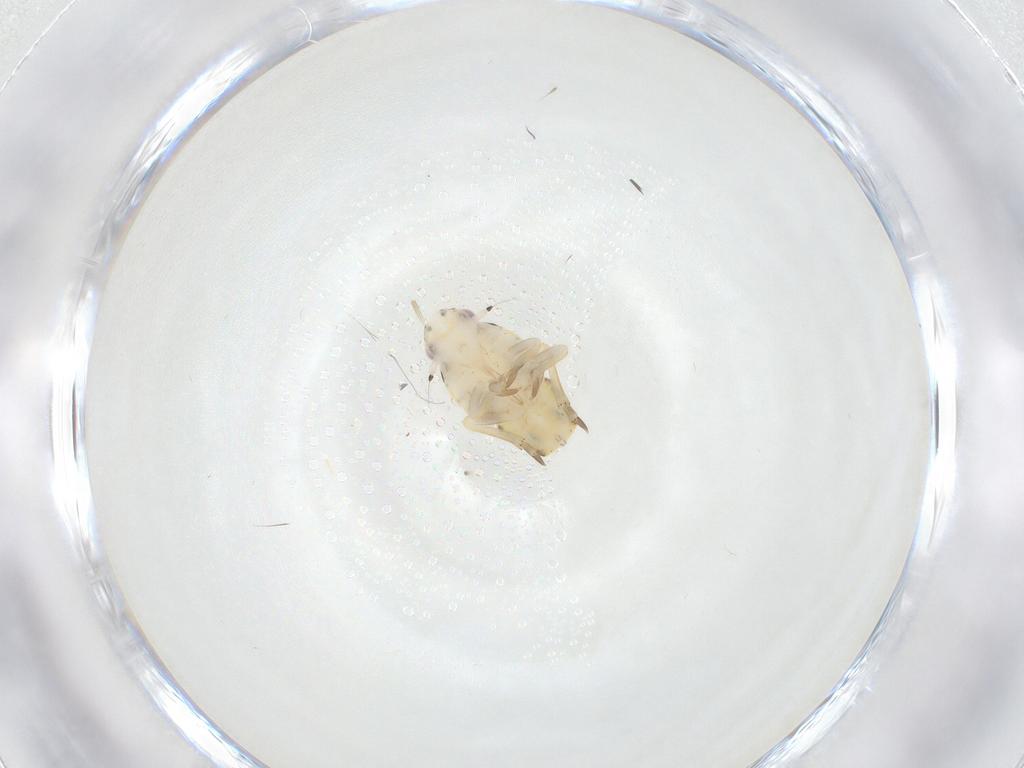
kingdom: Animalia
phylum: Arthropoda
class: Insecta
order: Hemiptera
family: Flatidae
